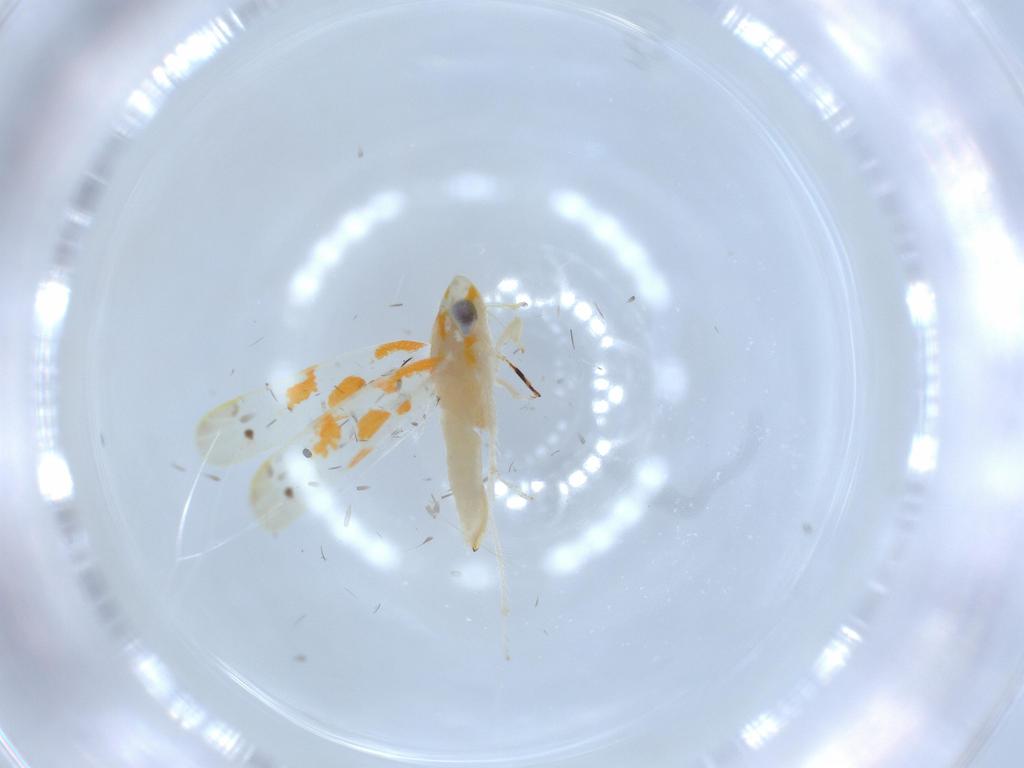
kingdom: Animalia
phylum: Arthropoda
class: Insecta
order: Hemiptera
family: Cicadellidae
